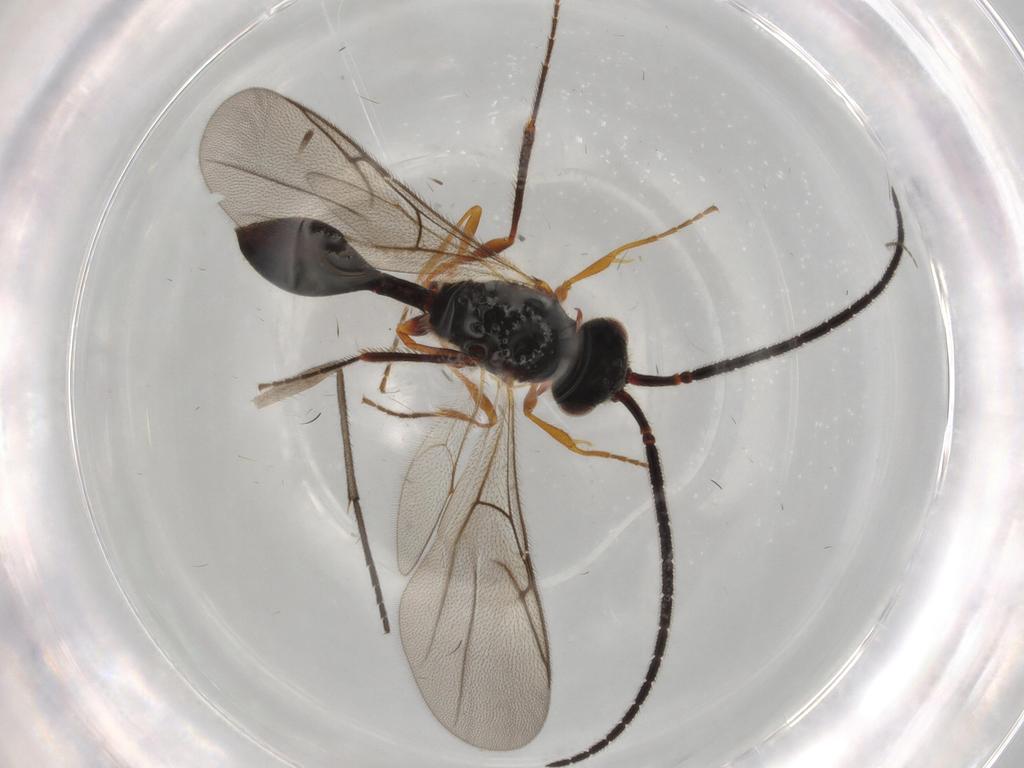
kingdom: Animalia
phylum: Arthropoda
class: Insecta
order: Hymenoptera
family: Diapriidae
